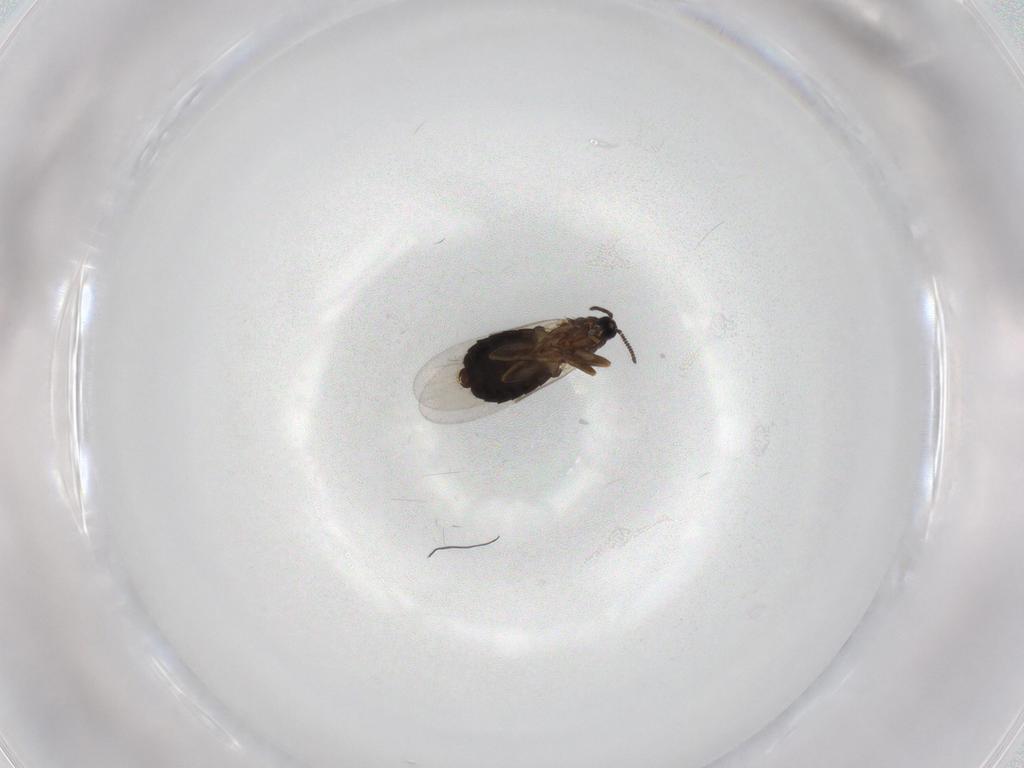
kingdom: Animalia
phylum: Arthropoda
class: Insecta
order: Diptera
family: Scatopsidae
